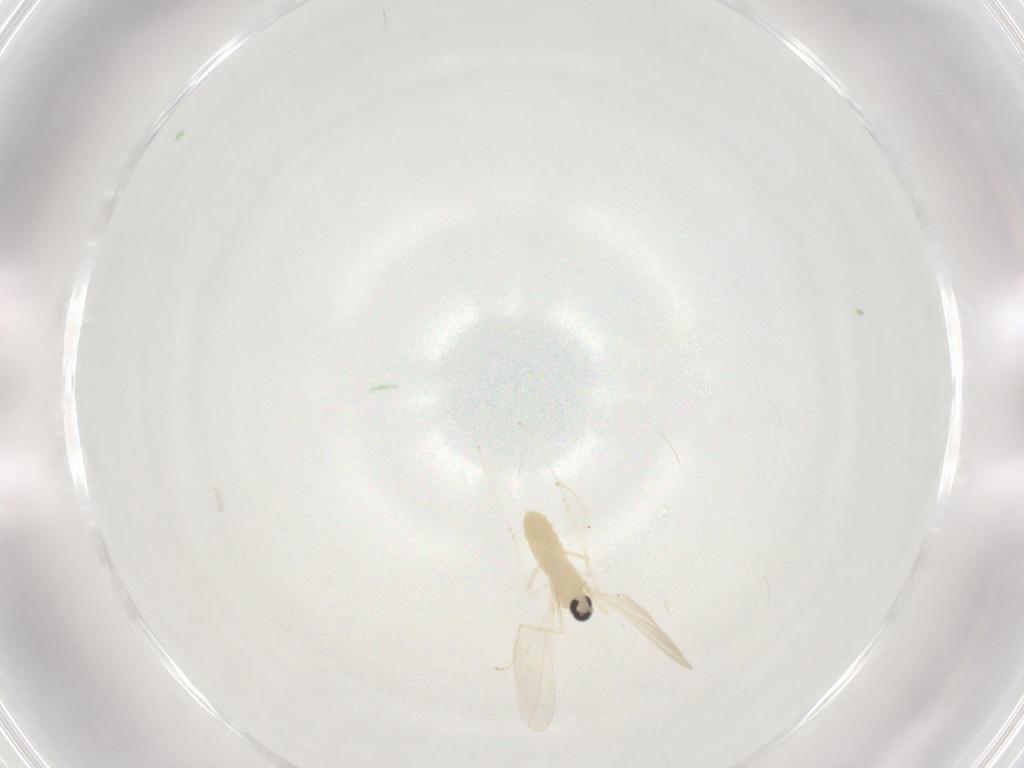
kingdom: Animalia
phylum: Arthropoda
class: Insecta
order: Diptera
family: Cecidomyiidae
